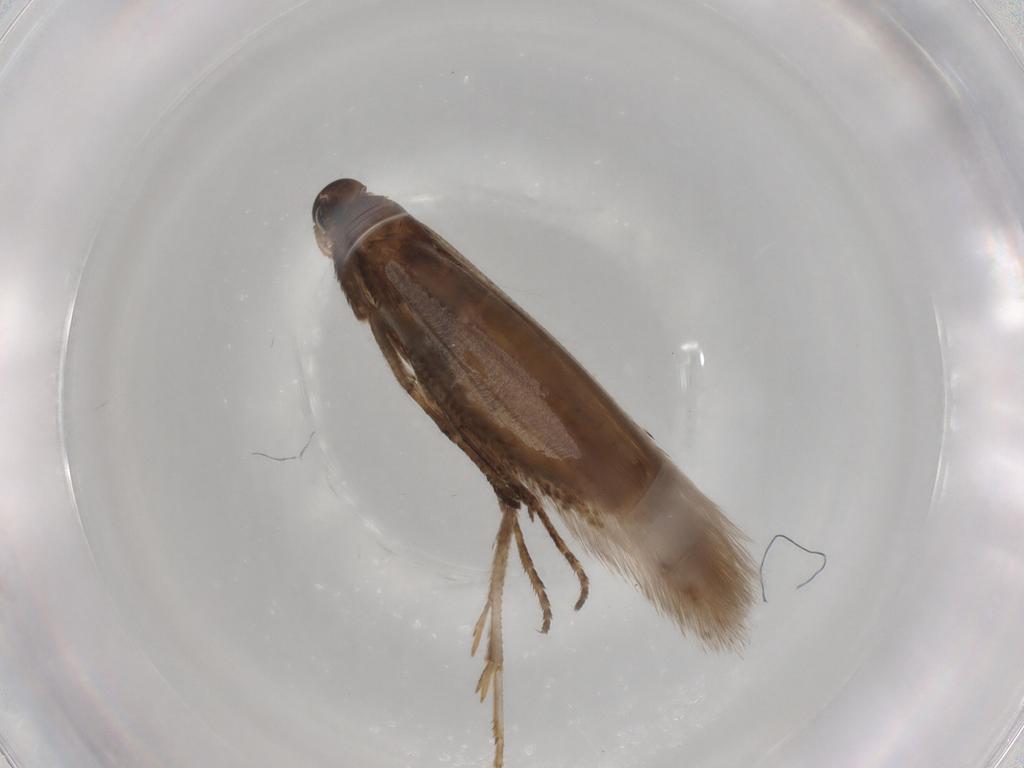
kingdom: Animalia
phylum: Arthropoda
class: Insecta
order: Lepidoptera
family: Gelechiidae
